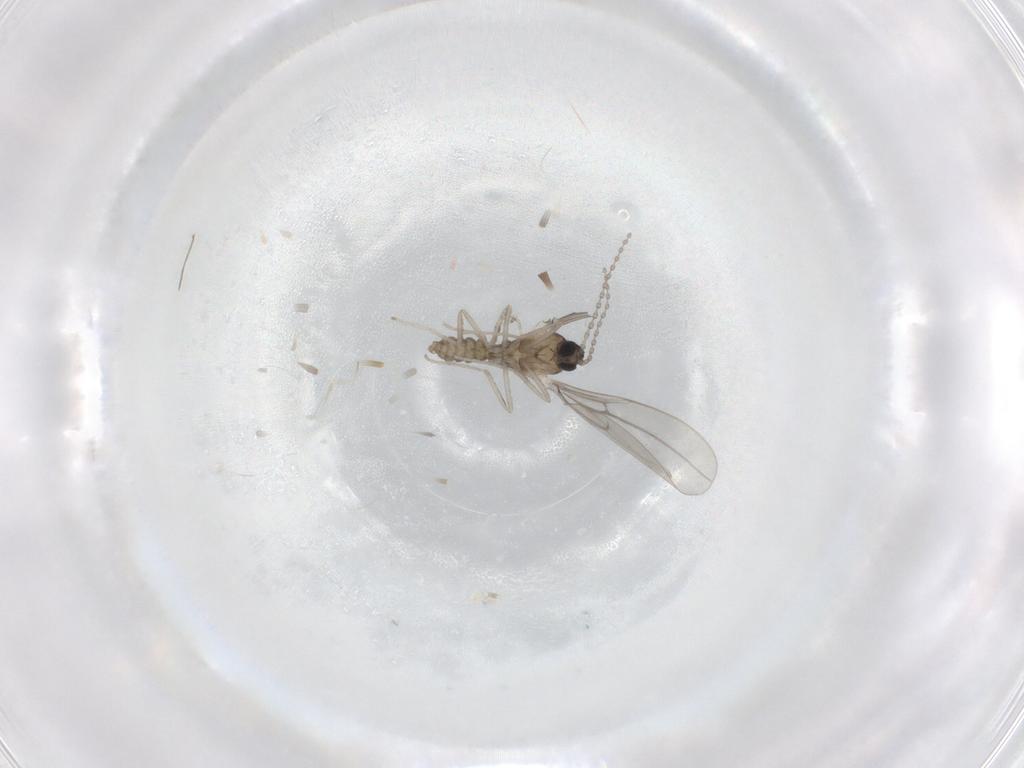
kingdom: Animalia
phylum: Arthropoda
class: Insecta
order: Diptera
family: Cecidomyiidae
